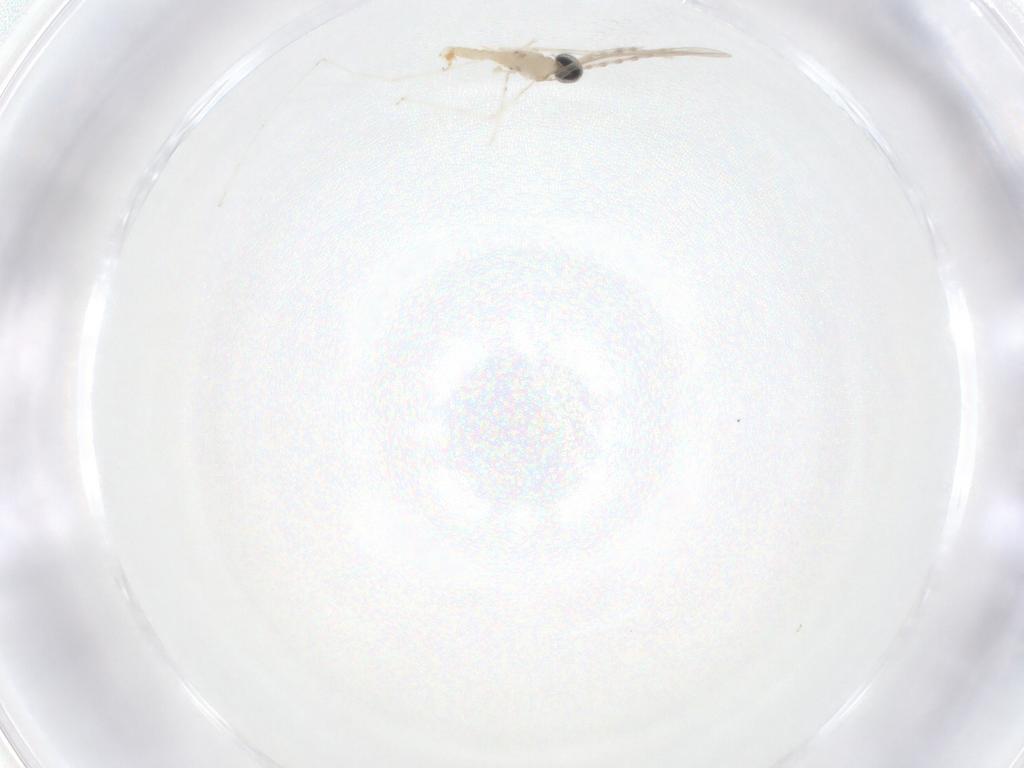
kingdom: Animalia
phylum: Arthropoda
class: Insecta
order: Diptera
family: Cecidomyiidae
